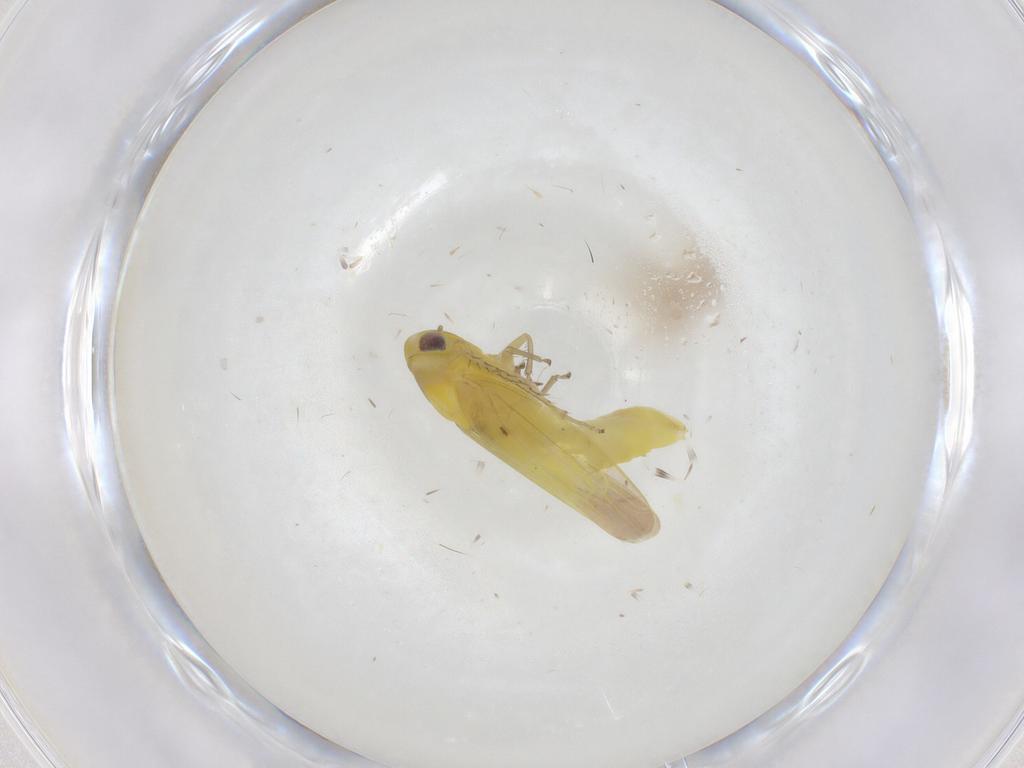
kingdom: Animalia
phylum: Arthropoda
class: Insecta
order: Hemiptera
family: Cicadellidae
